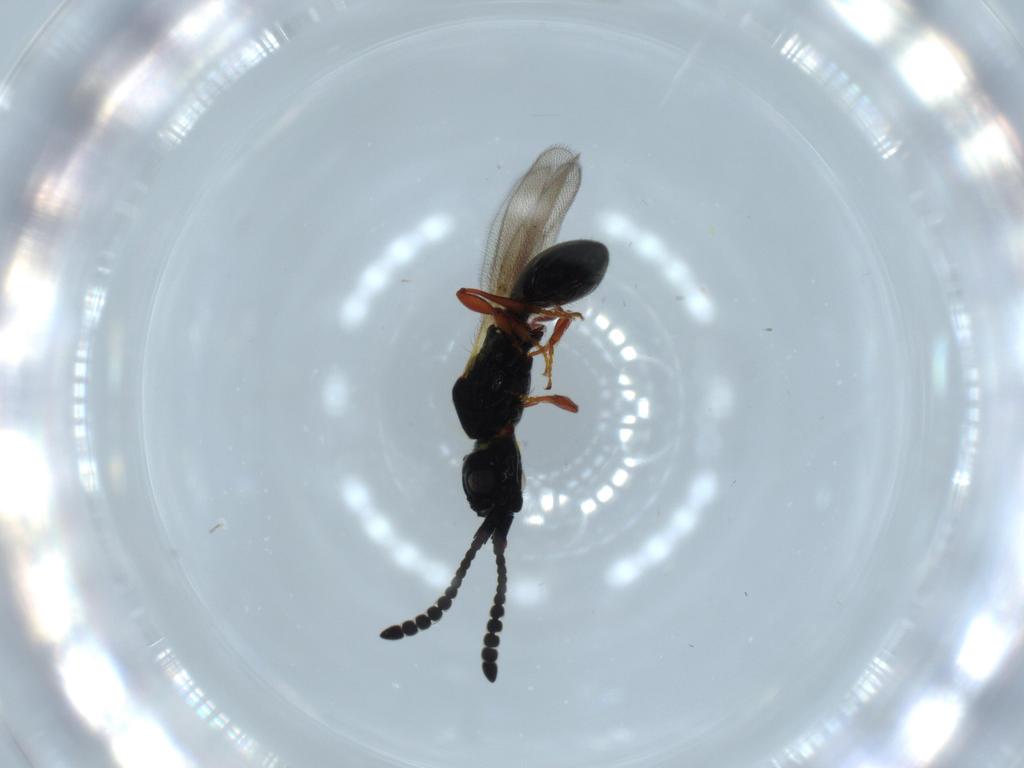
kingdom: Animalia
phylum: Arthropoda
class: Insecta
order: Hymenoptera
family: Diapriidae
